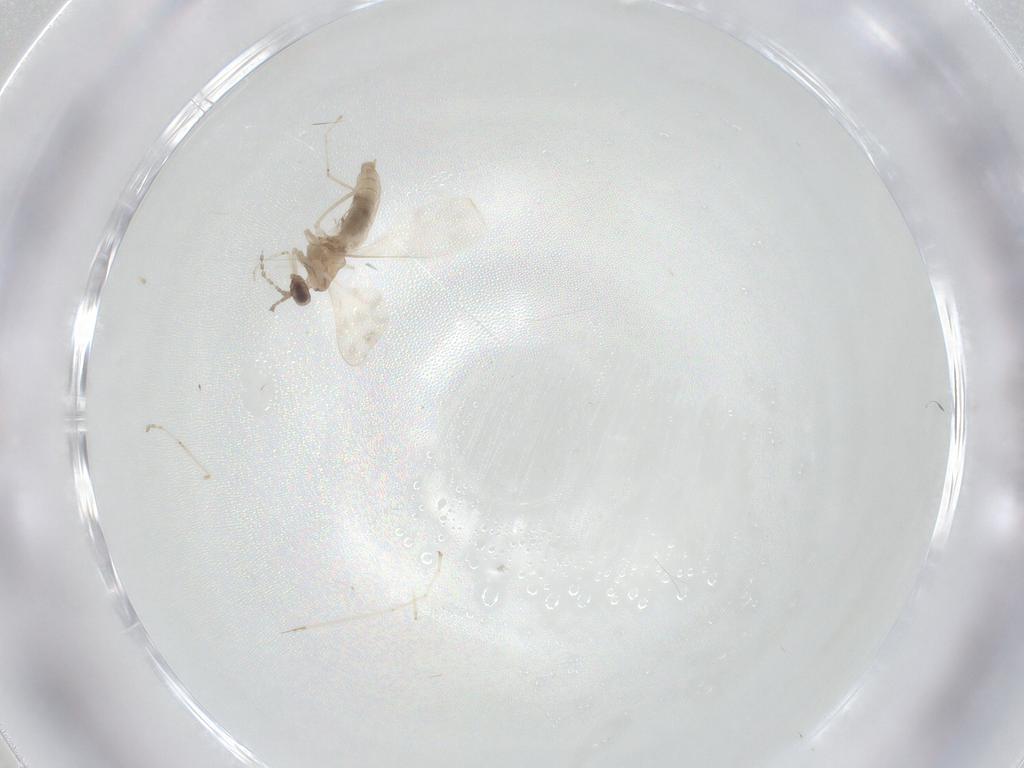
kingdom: Animalia
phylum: Arthropoda
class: Insecta
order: Diptera
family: Cecidomyiidae
